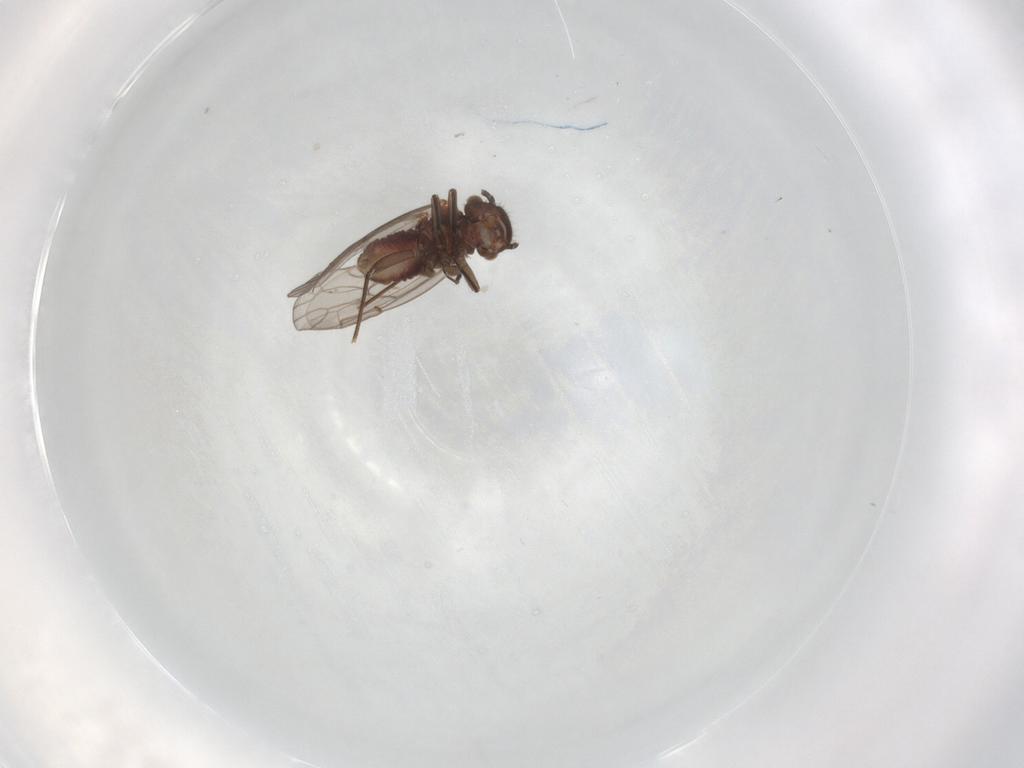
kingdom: Animalia
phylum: Arthropoda
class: Insecta
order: Psocodea
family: Ectopsocidae
